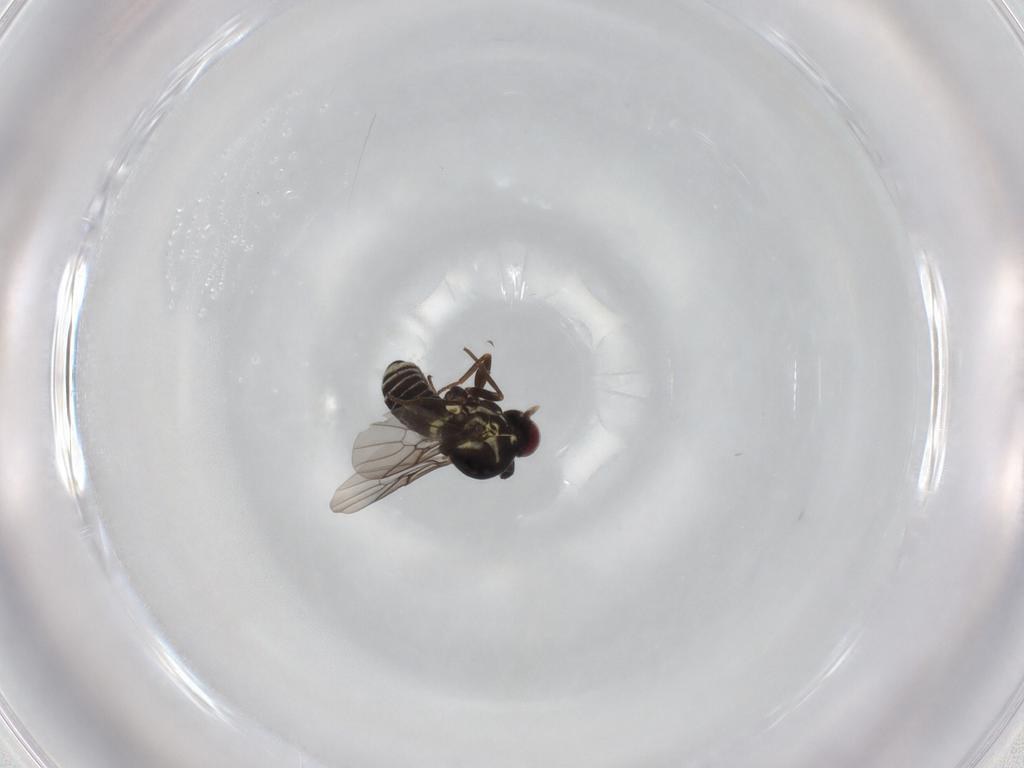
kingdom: Animalia
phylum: Arthropoda
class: Insecta
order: Diptera
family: Mythicomyiidae
